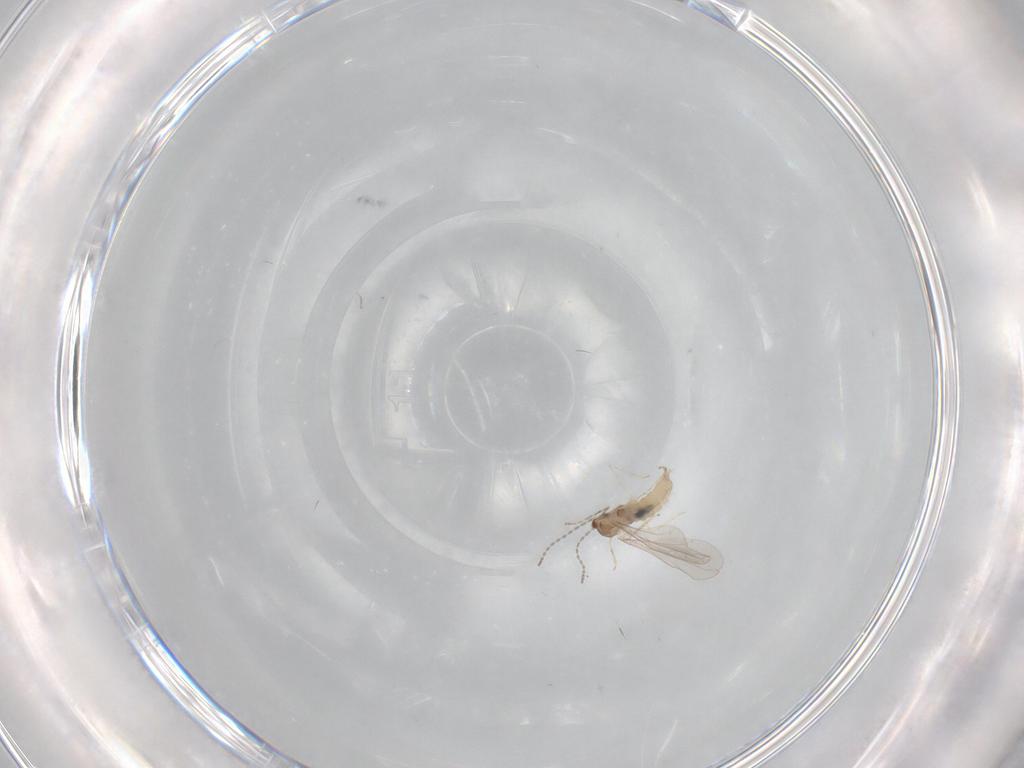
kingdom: Animalia
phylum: Arthropoda
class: Insecta
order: Diptera
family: Cecidomyiidae
